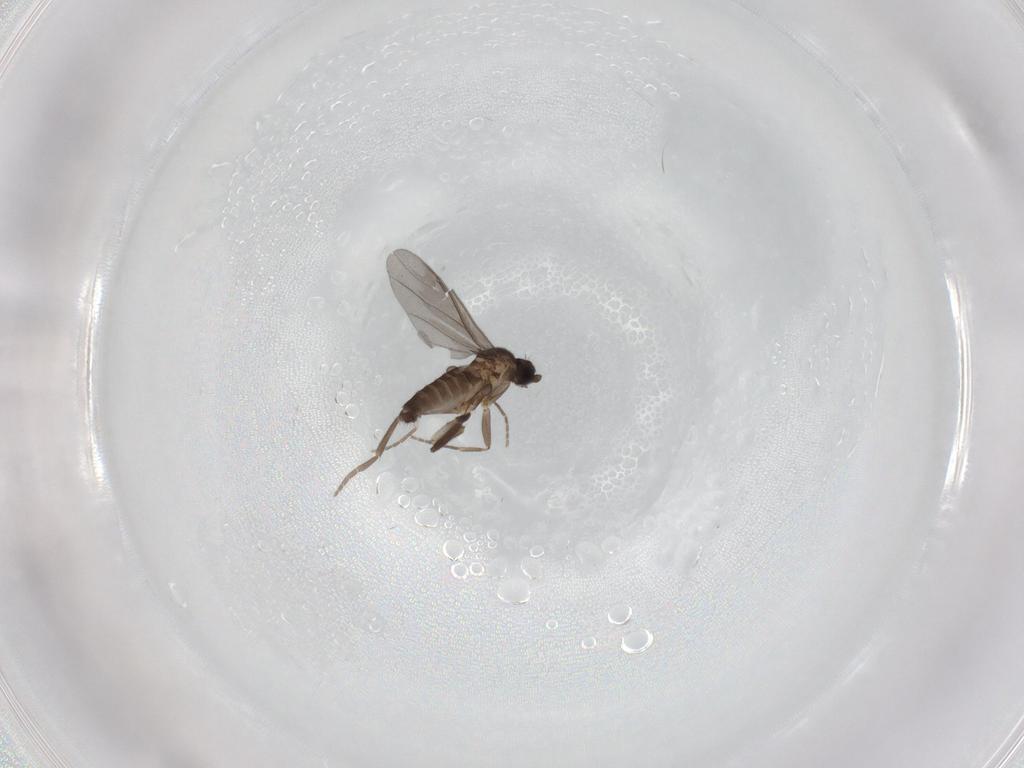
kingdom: Animalia
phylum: Arthropoda
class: Insecta
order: Diptera
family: Phoridae
